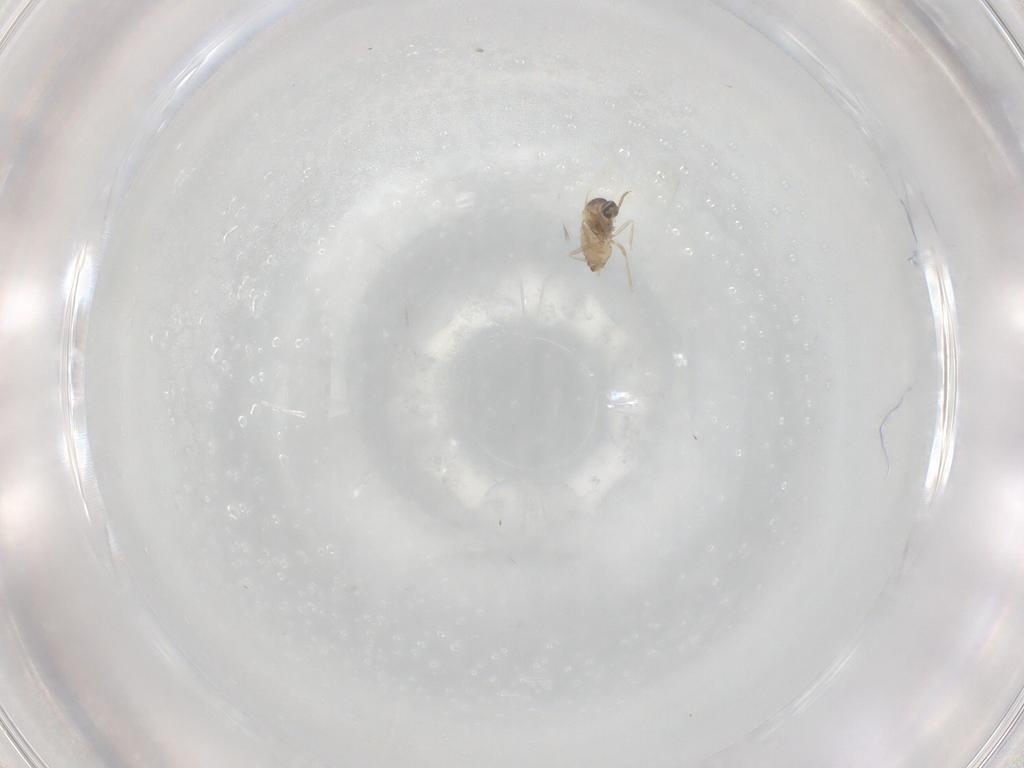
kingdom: Animalia
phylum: Arthropoda
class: Insecta
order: Diptera
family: Cecidomyiidae
